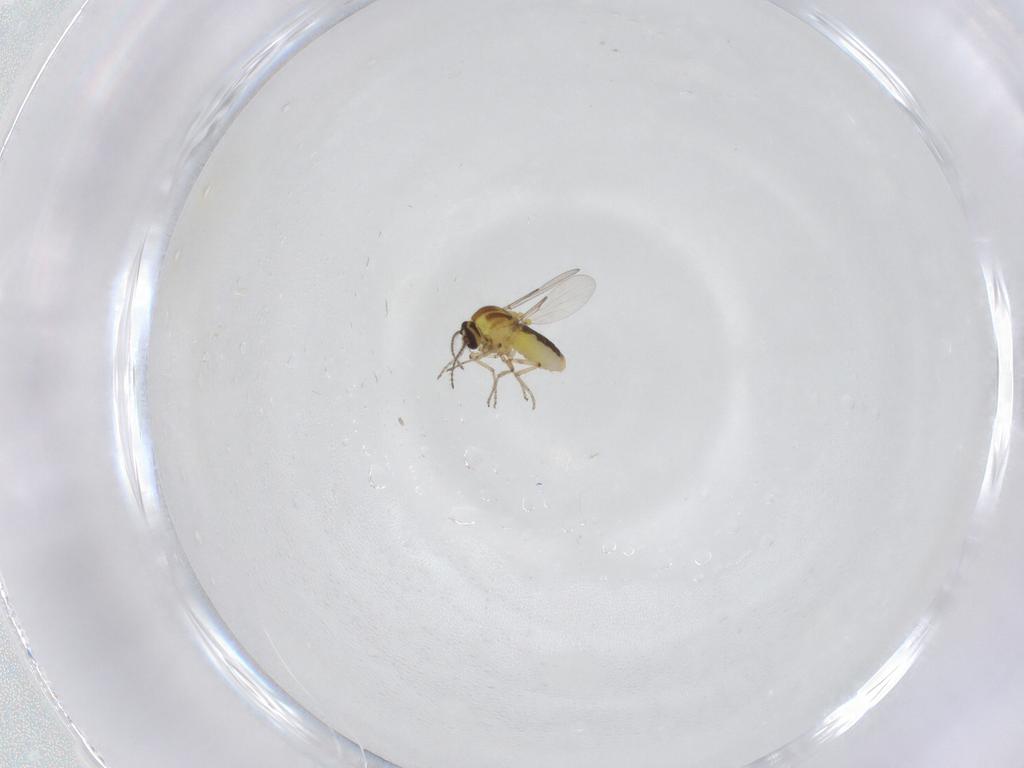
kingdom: Animalia
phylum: Arthropoda
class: Insecta
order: Diptera
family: Ceratopogonidae
